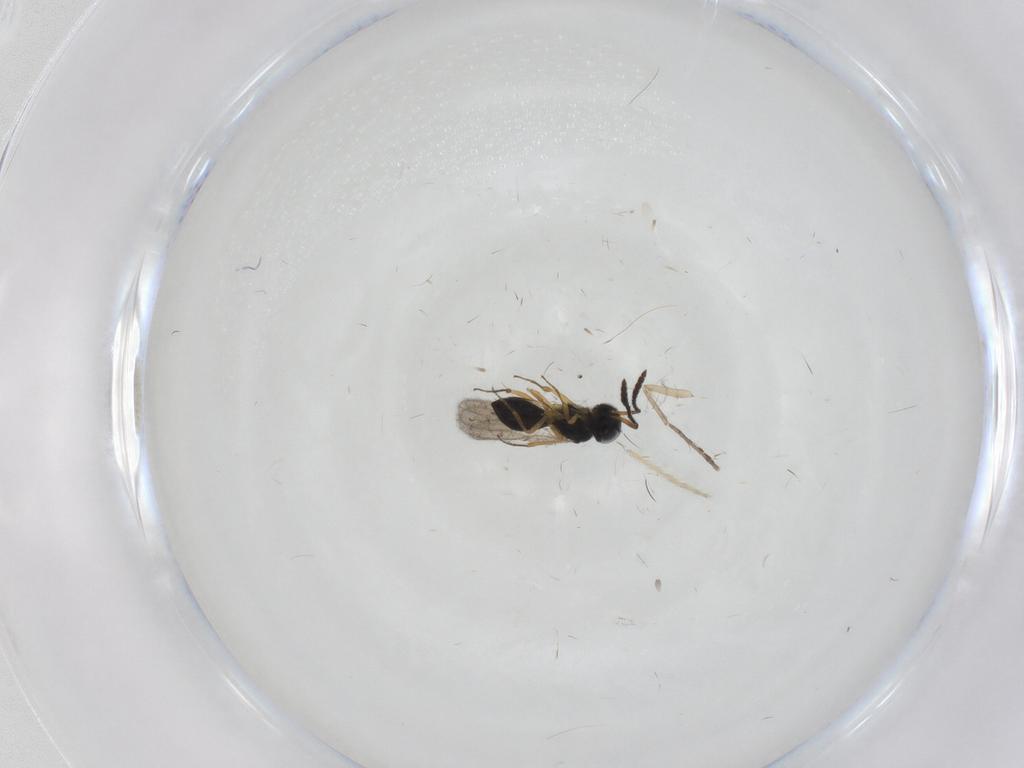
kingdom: Animalia
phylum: Arthropoda
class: Insecta
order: Hymenoptera
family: Scelionidae
